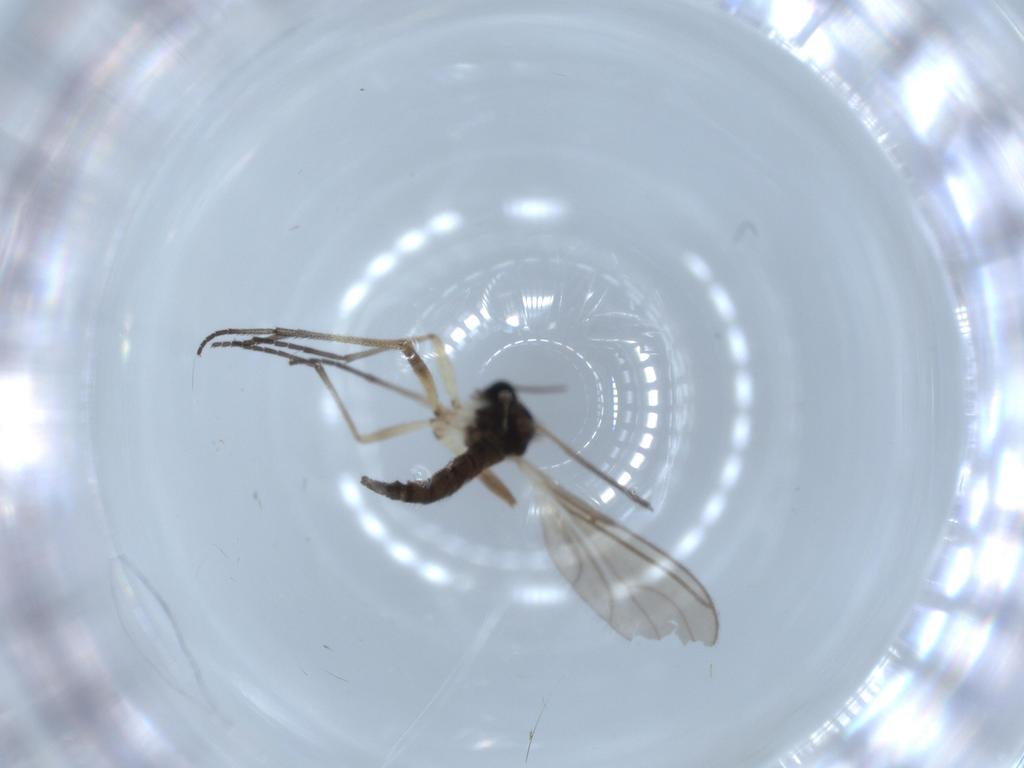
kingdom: Animalia
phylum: Arthropoda
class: Insecta
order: Diptera
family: Sciaridae
